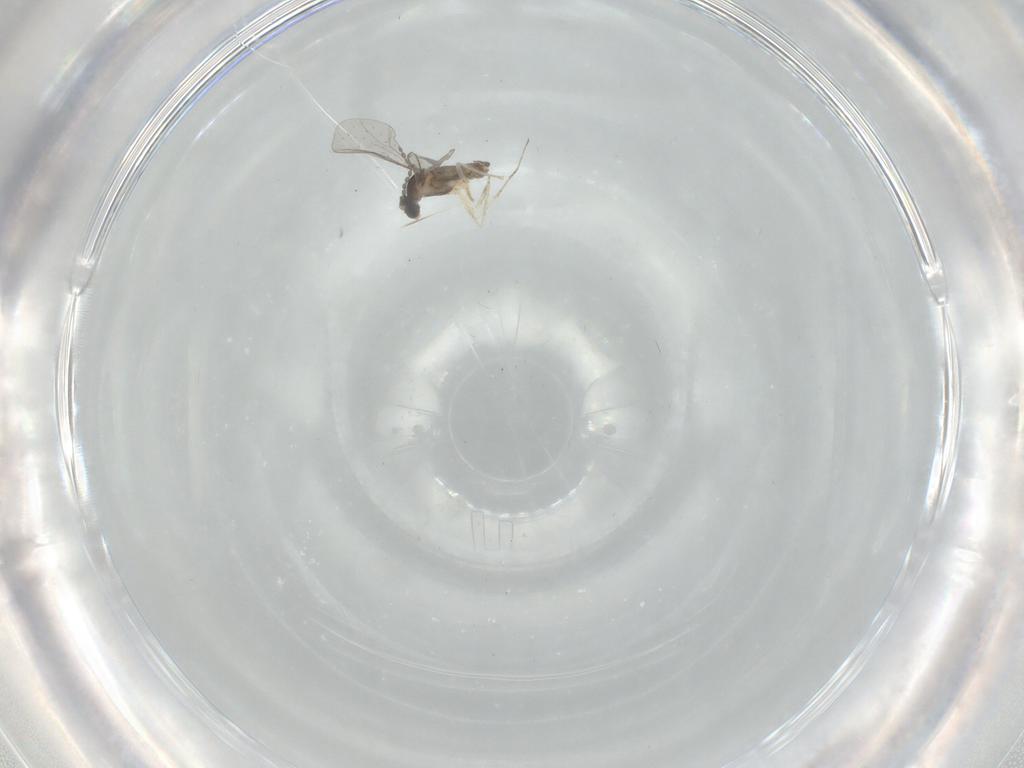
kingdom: Animalia
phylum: Arthropoda
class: Insecta
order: Diptera
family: Cecidomyiidae
